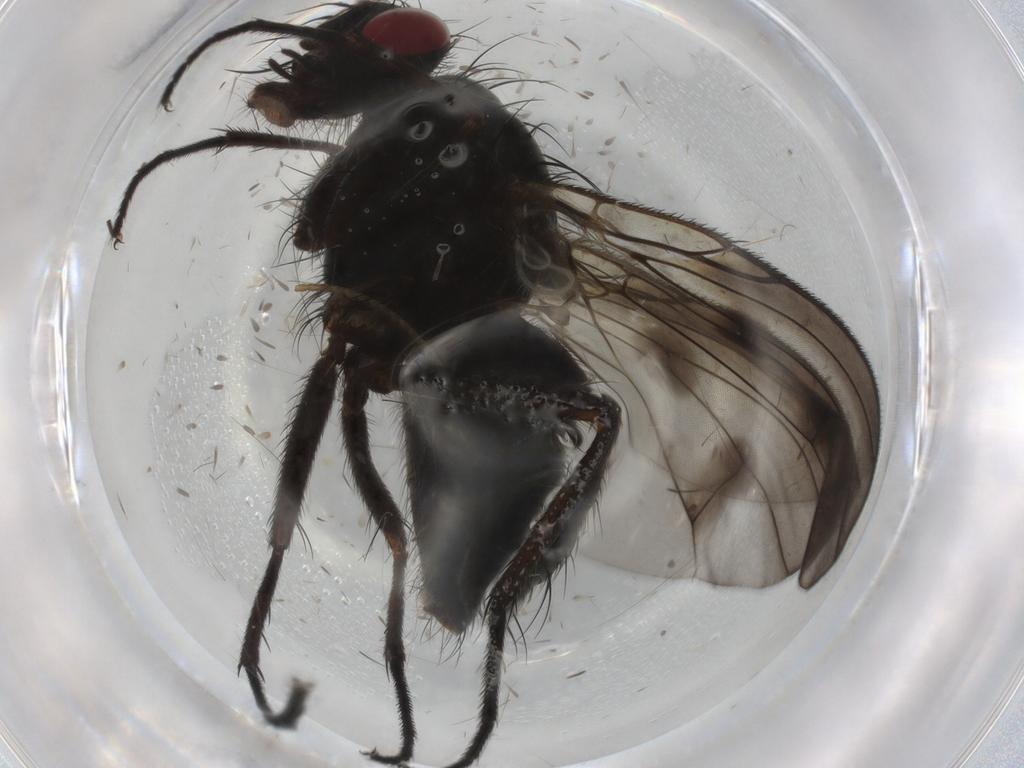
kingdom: Animalia
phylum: Arthropoda
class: Insecta
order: Diptera
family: Muscidae
